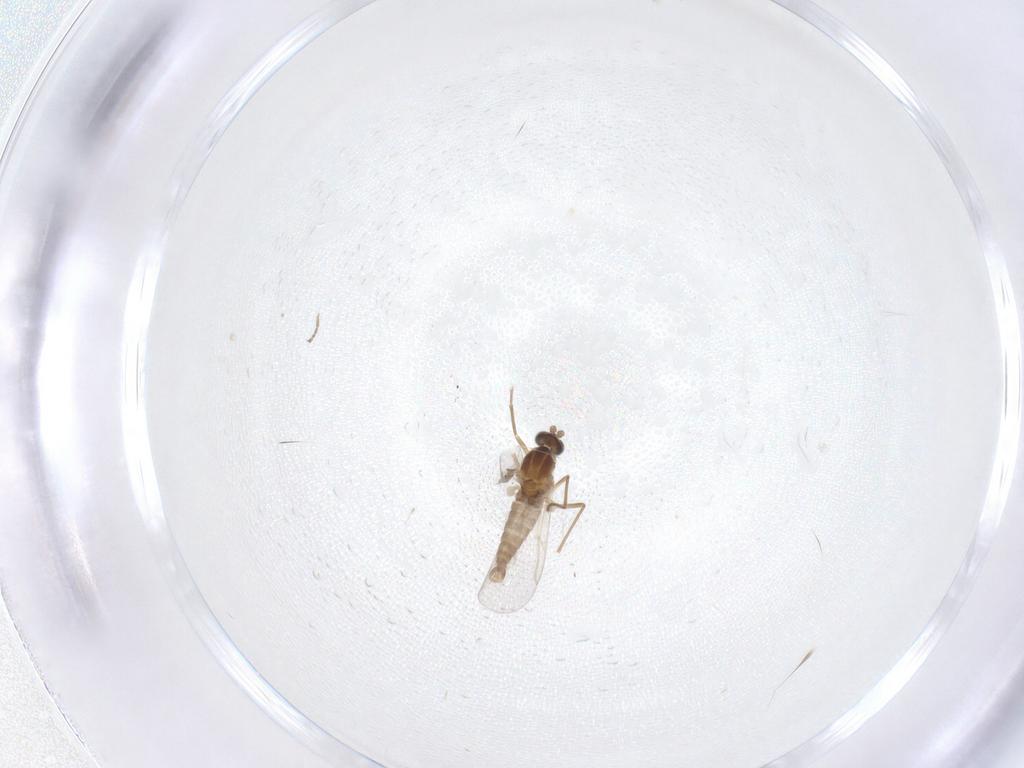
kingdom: Animalia
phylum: Arthropoda
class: Insecta
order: Diptera
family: Cecidomyiidae
